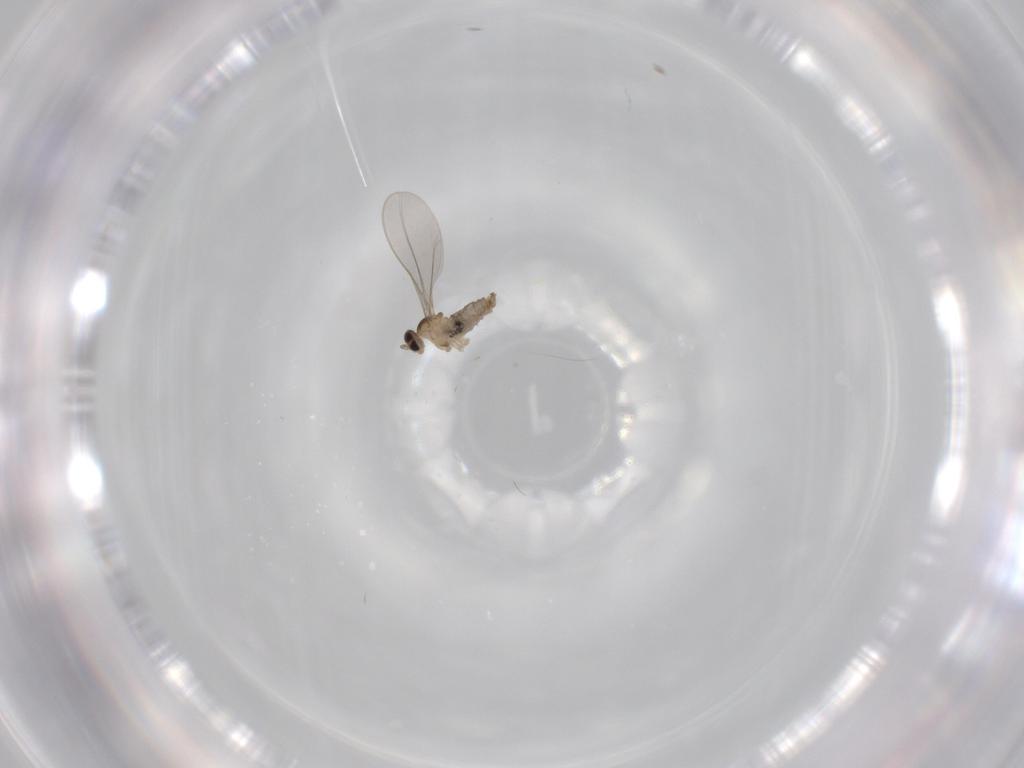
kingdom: Animalia
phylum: Arthropoda
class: Insecta
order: Diptera
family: Cecidomyiidae
